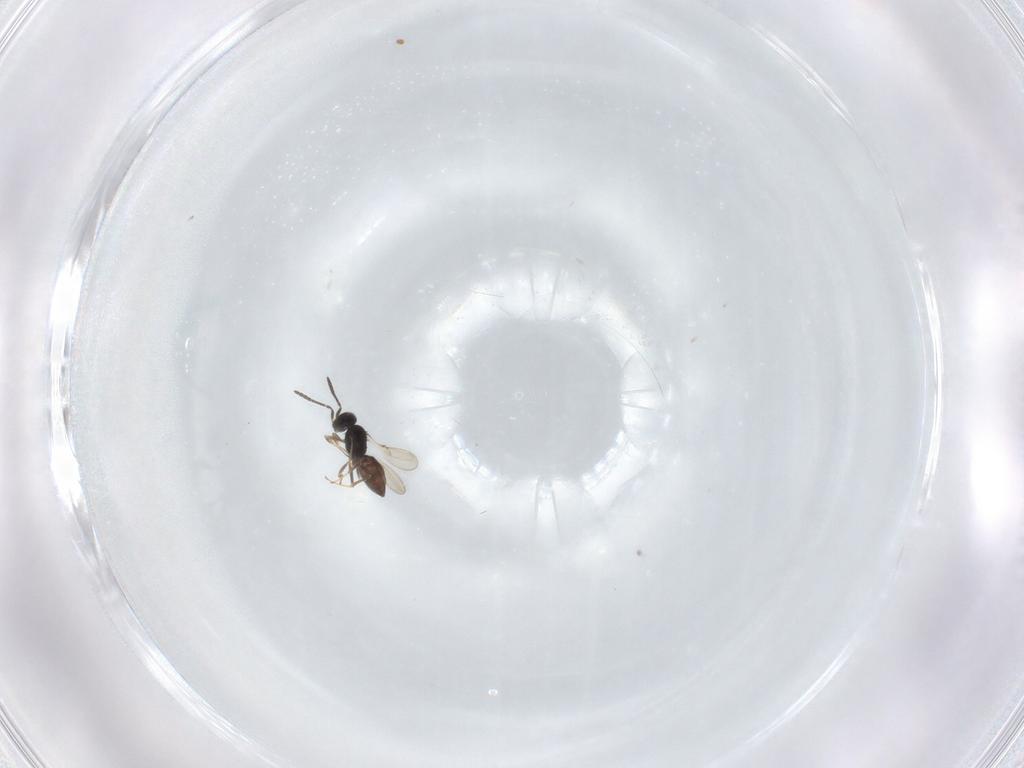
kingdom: Animalia
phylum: Arthropoda
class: Insecta
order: Hymenoptera
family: Scelionidae
